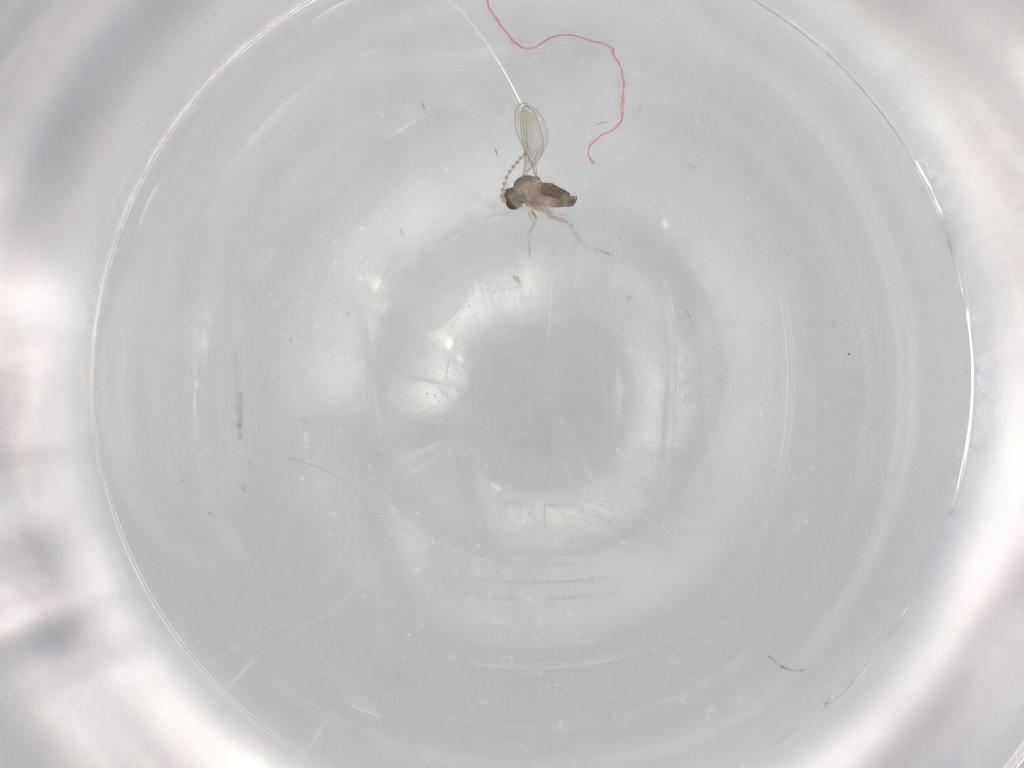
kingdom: Animalia
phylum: Arthropoda
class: Insecta
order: Diptera
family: Cecidomyiidae
